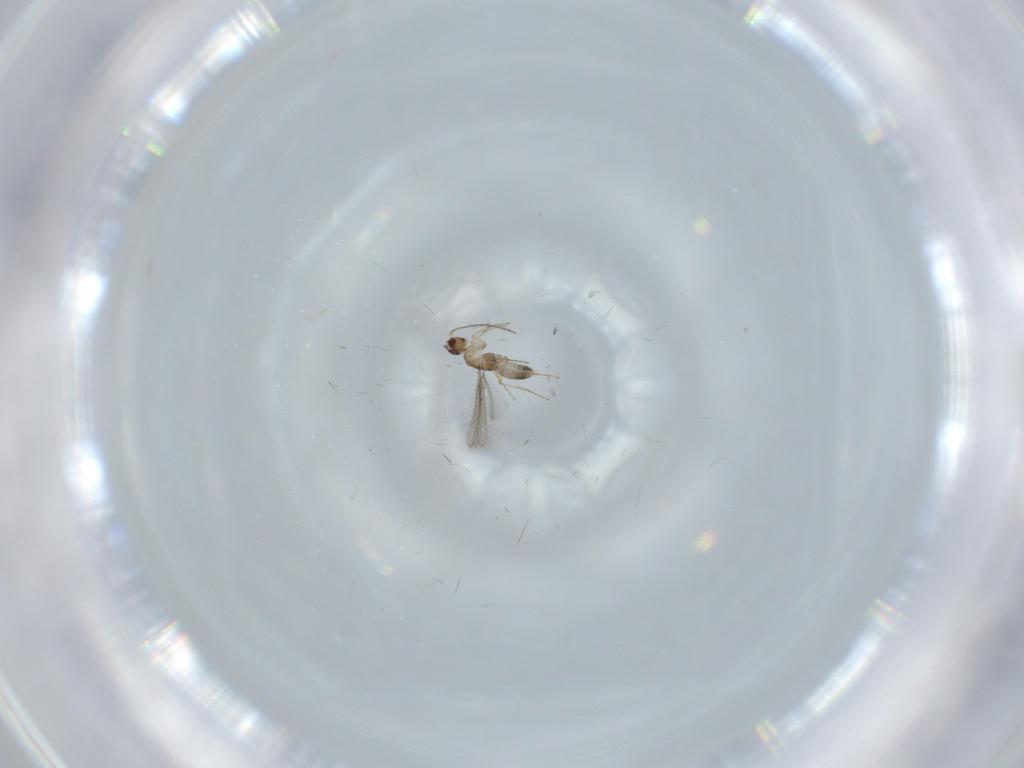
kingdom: Animalia
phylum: Arthropoda
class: Insecta
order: Hymenoptera
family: Mymaridae
